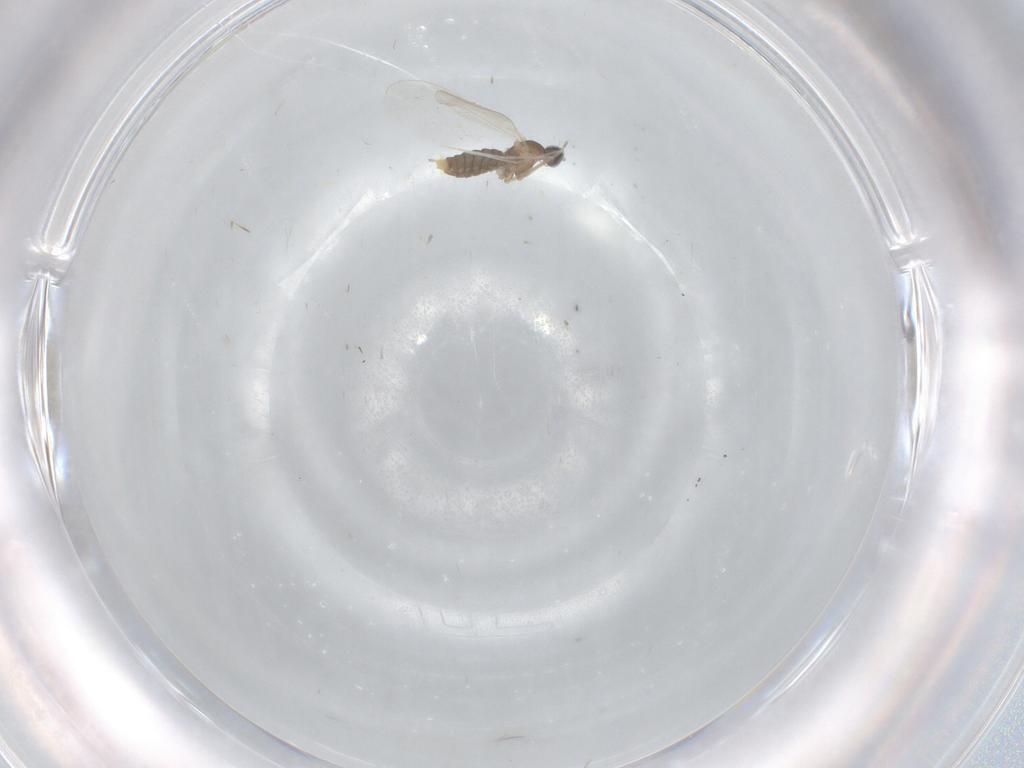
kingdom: Animalia
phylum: Arthropoda
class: Insecta
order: Diptera
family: Cecidomyiidae
